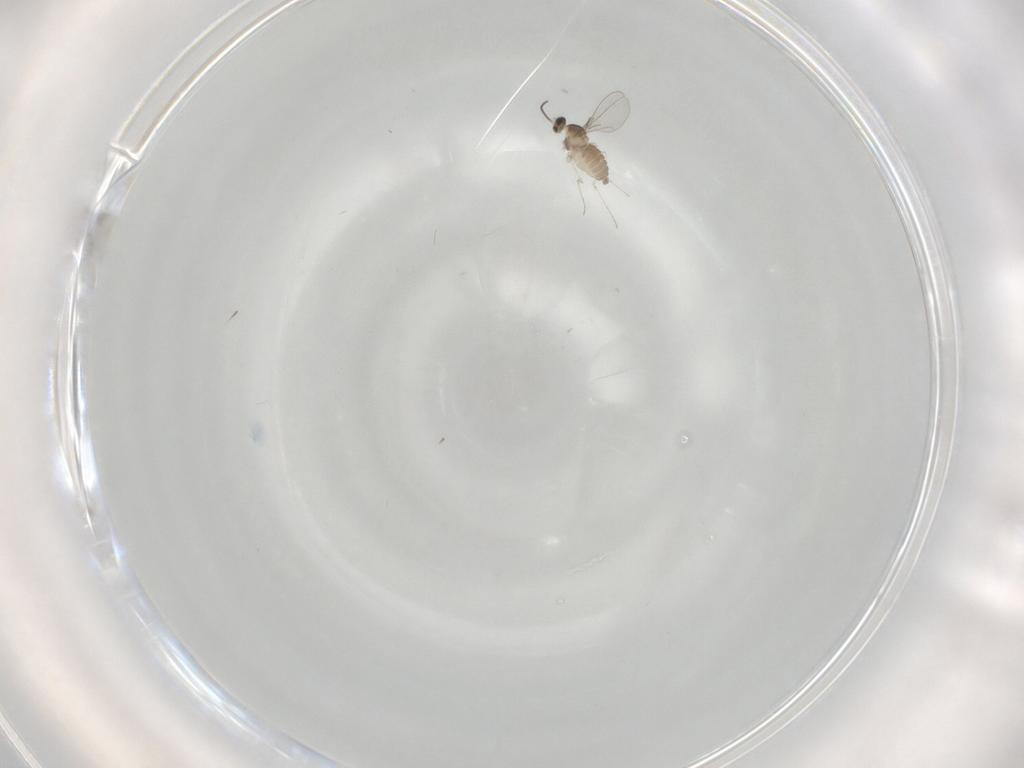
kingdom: Animalia
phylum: Arthropoda
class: Insecta
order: Diptera
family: Cecidomyiidae
